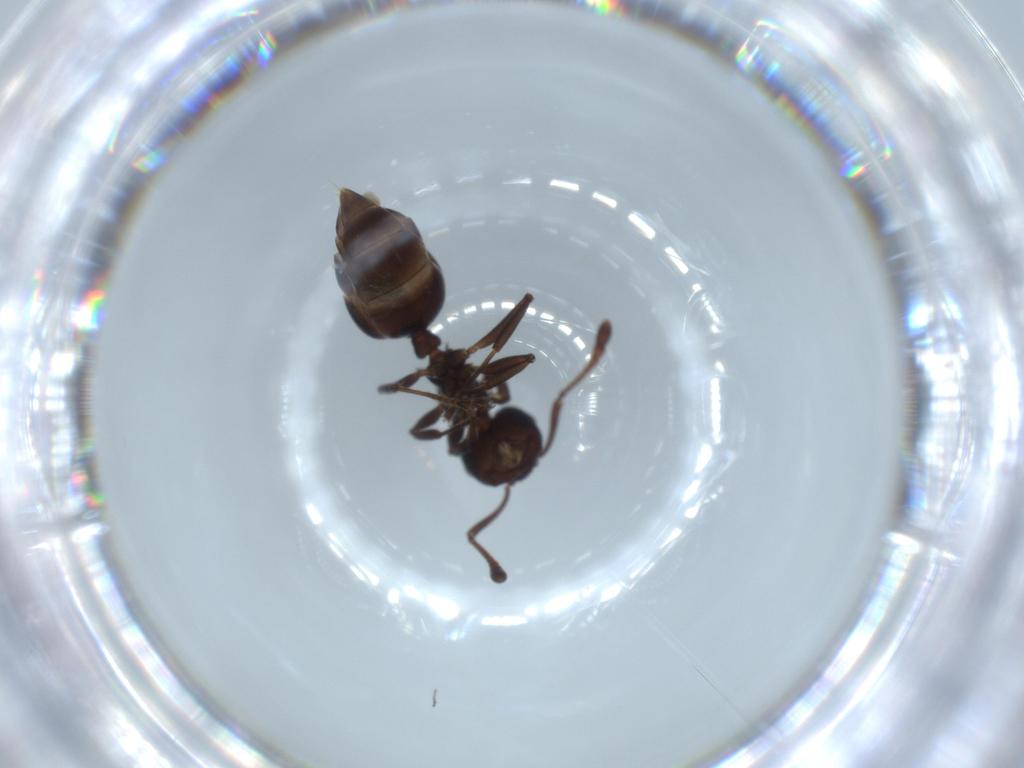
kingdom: Animalia
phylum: Arthropoda
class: Insecta
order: Hymenoptera
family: Formicidae
